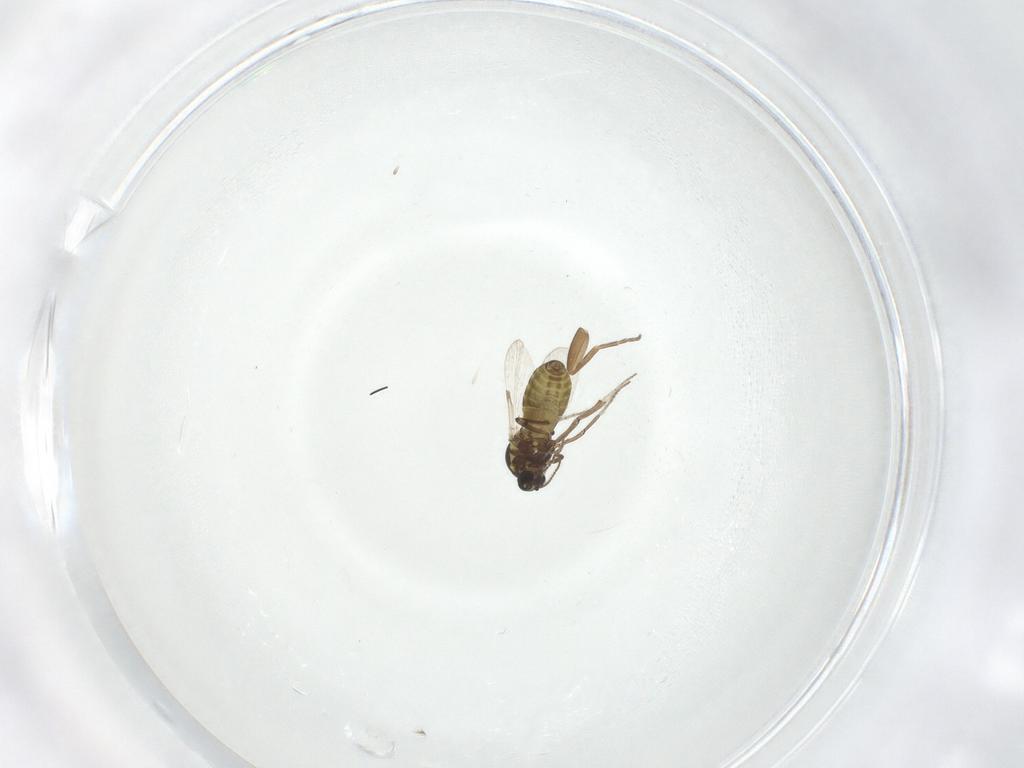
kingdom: Animalia
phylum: Arthropoda
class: Insecta
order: Diptera
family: Ceratopogonidae
